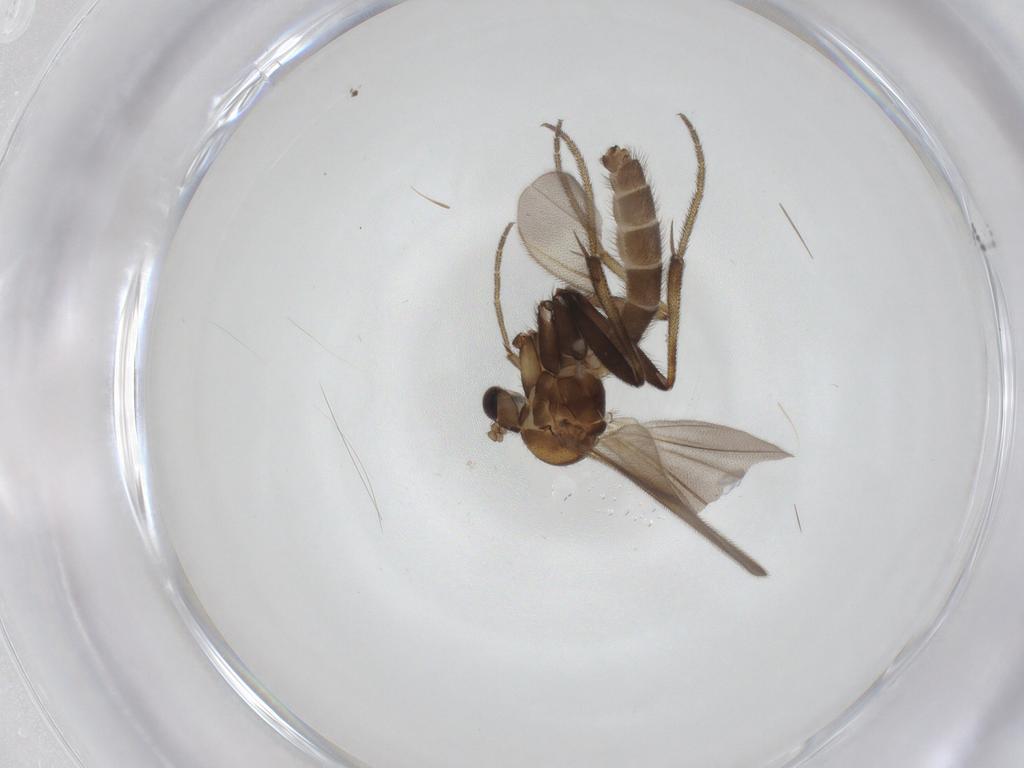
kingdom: Animalia
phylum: Arthropoda
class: Insecta
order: Diptera
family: Mycetophilidae
